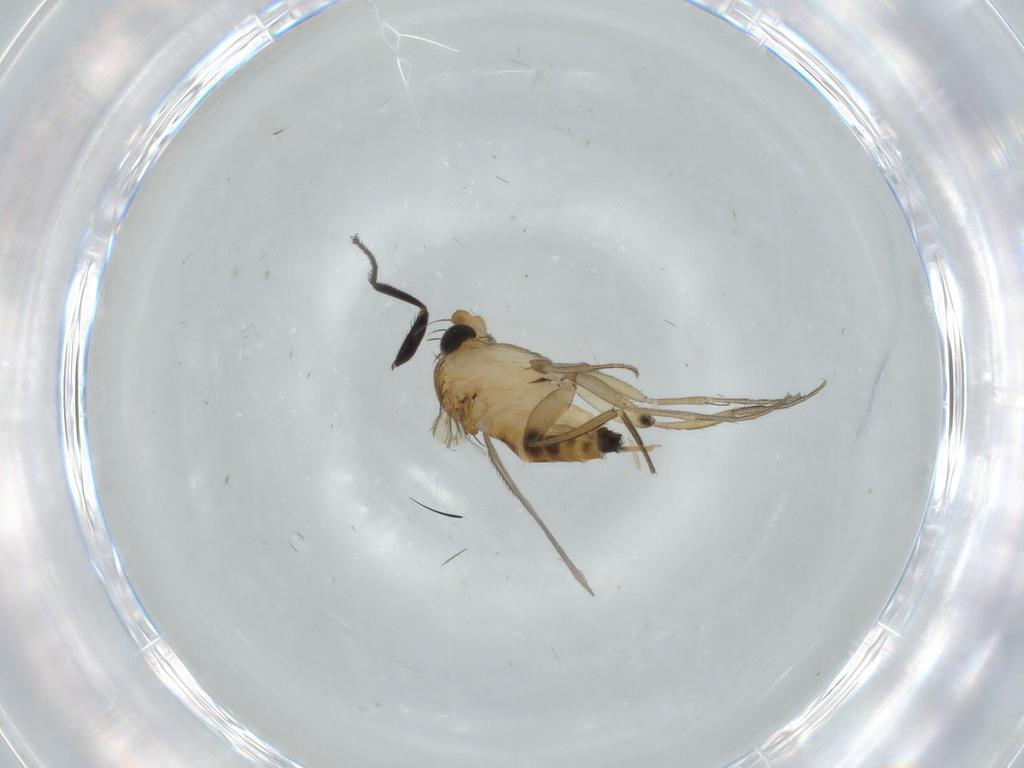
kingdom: Animalia
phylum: Arthropoda
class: Insecta
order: Diptera
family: Phoridae
